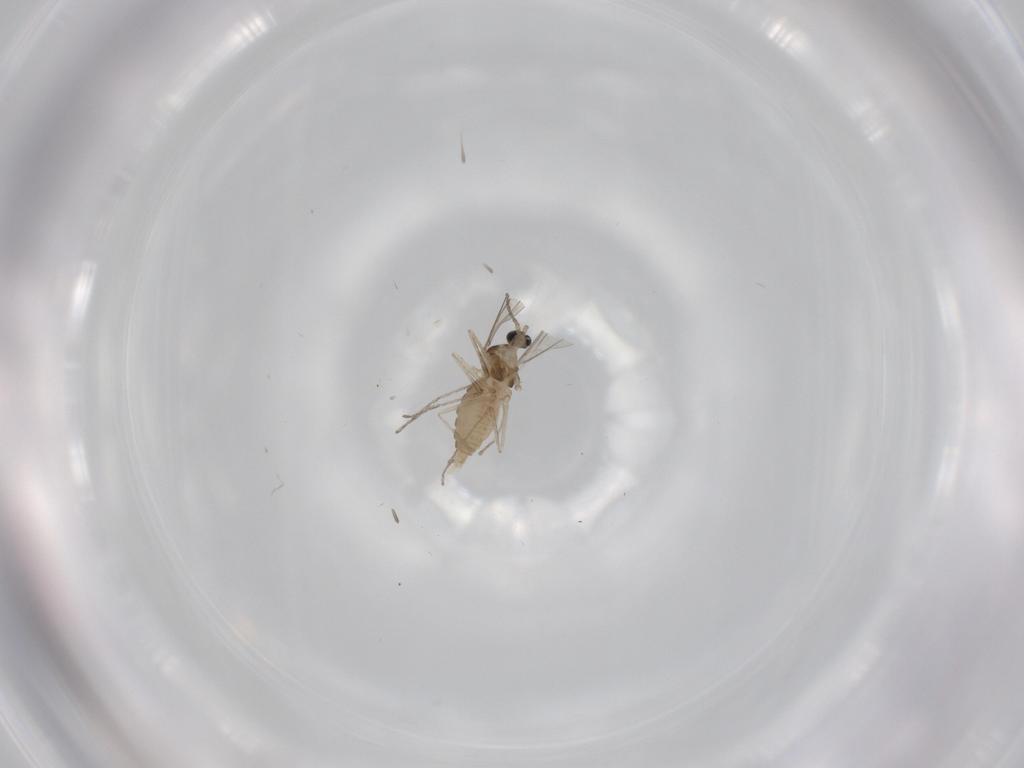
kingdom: Animalia
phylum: Arthropoda
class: Insecta
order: Diptera
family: Cecidomyiidae
